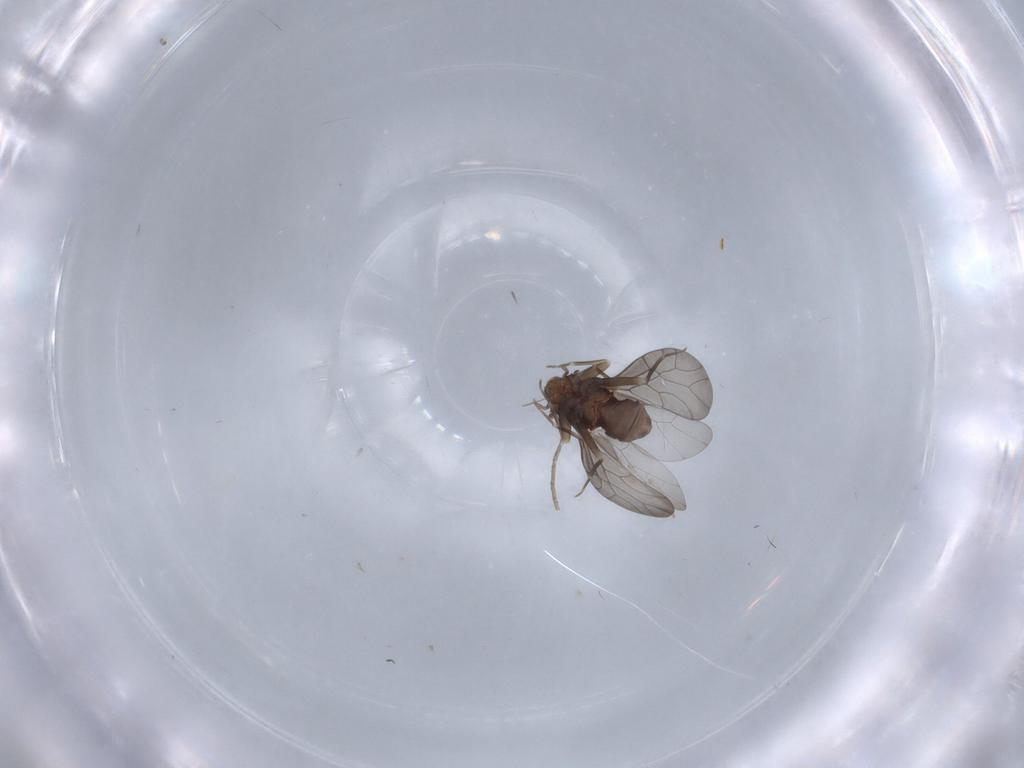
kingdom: Animalia
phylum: Arthropoda
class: Insecta
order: Psocodea
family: Lepidopsocidae
